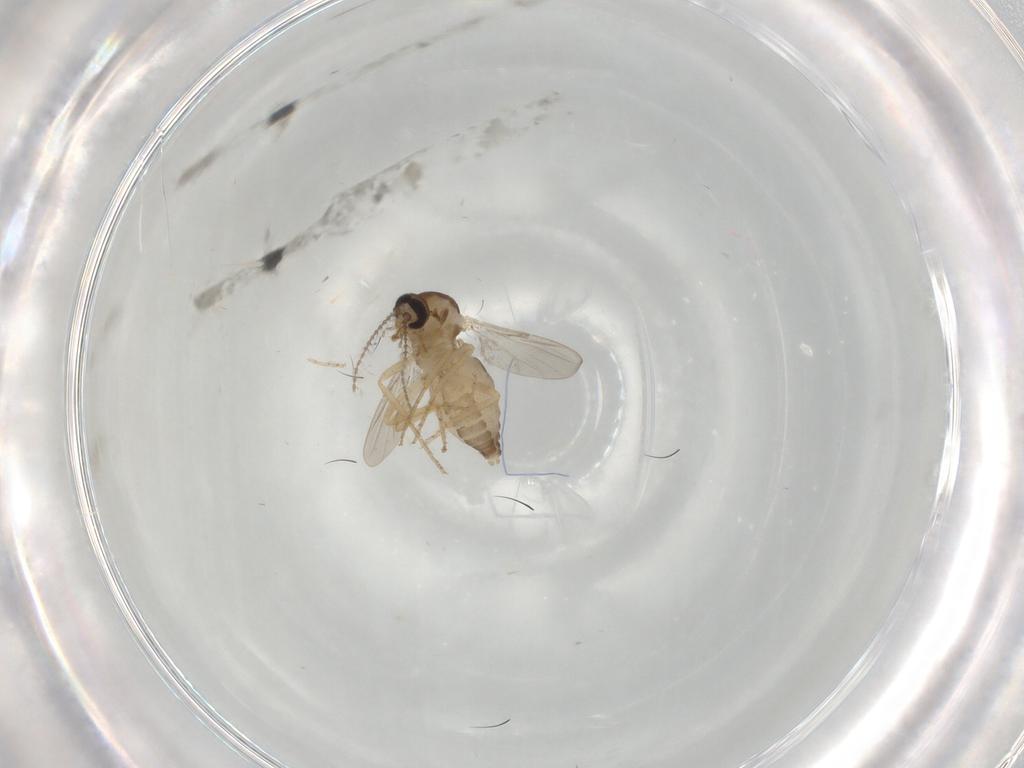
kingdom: Animalia
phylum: Arthropoda
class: Insecta
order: Diptera
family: Ceratopogonidae
